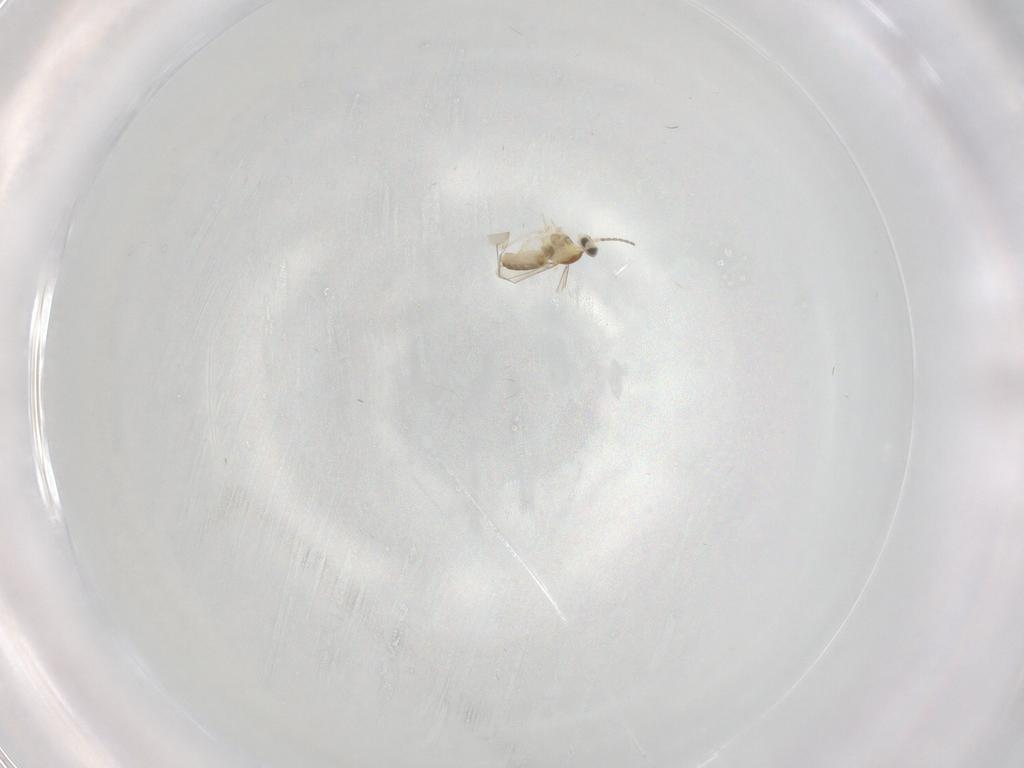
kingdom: Animalia
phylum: Arthropoda
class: Insecta
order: Diptera
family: Cecidomyiidae
